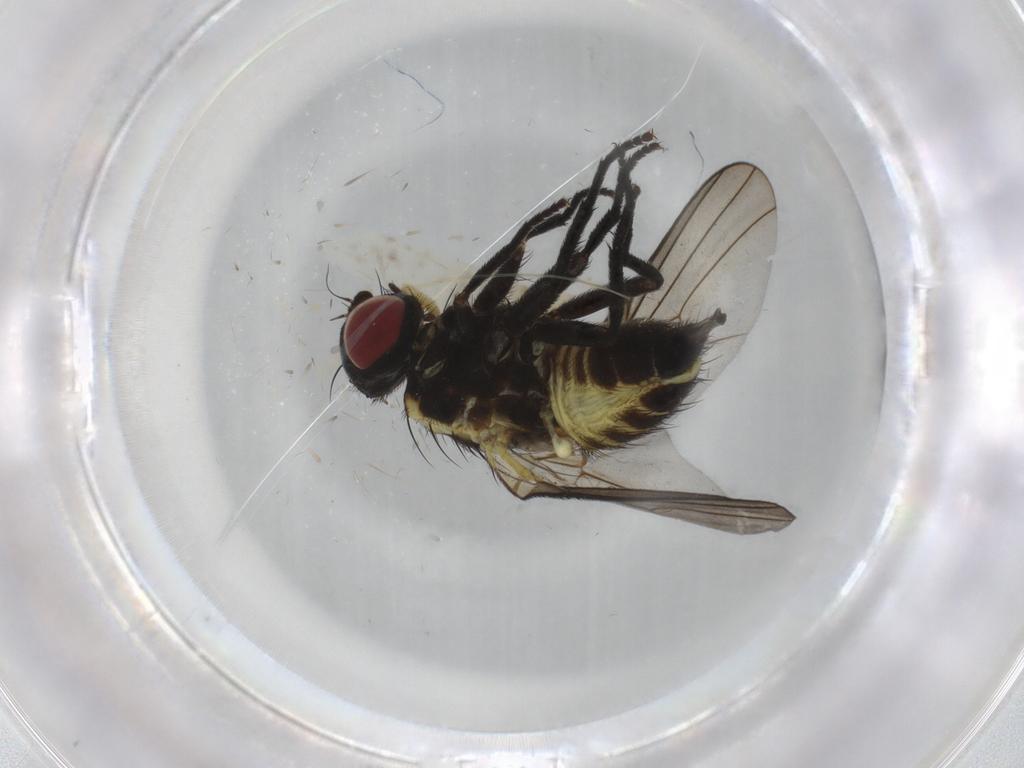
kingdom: Animalia
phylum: Arthropoda
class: Insecta
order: Diptera
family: Agromyzidae
